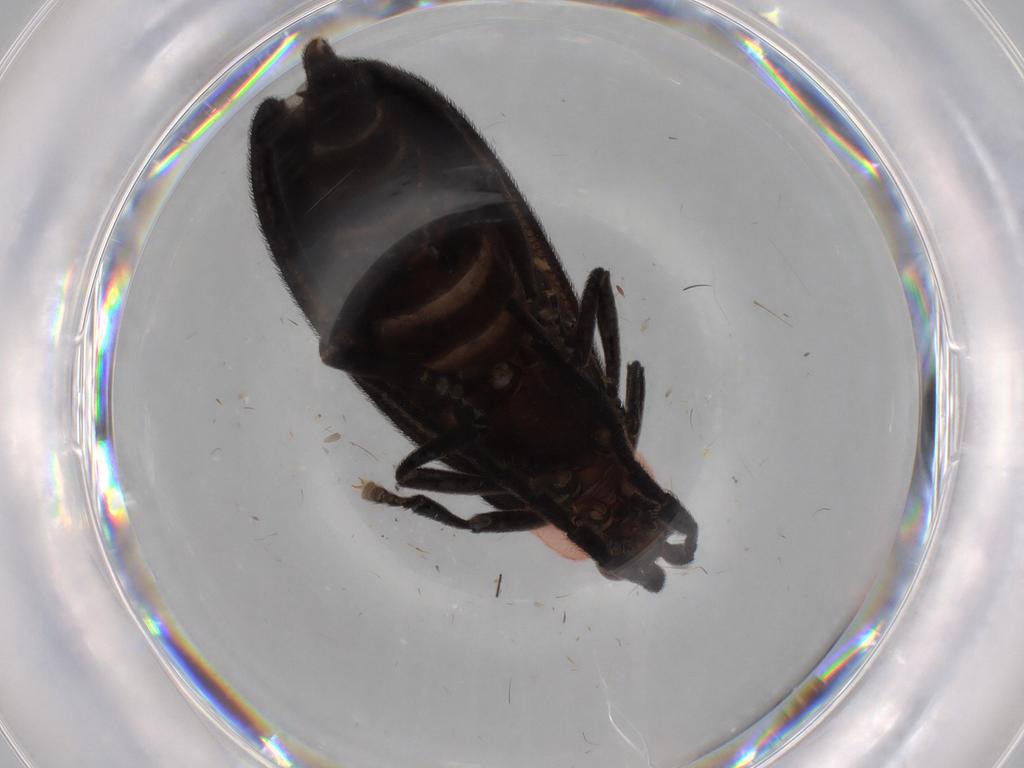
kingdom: Animalia
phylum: Arthropoda
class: Insecta
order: Coleoptera
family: Lycidae
